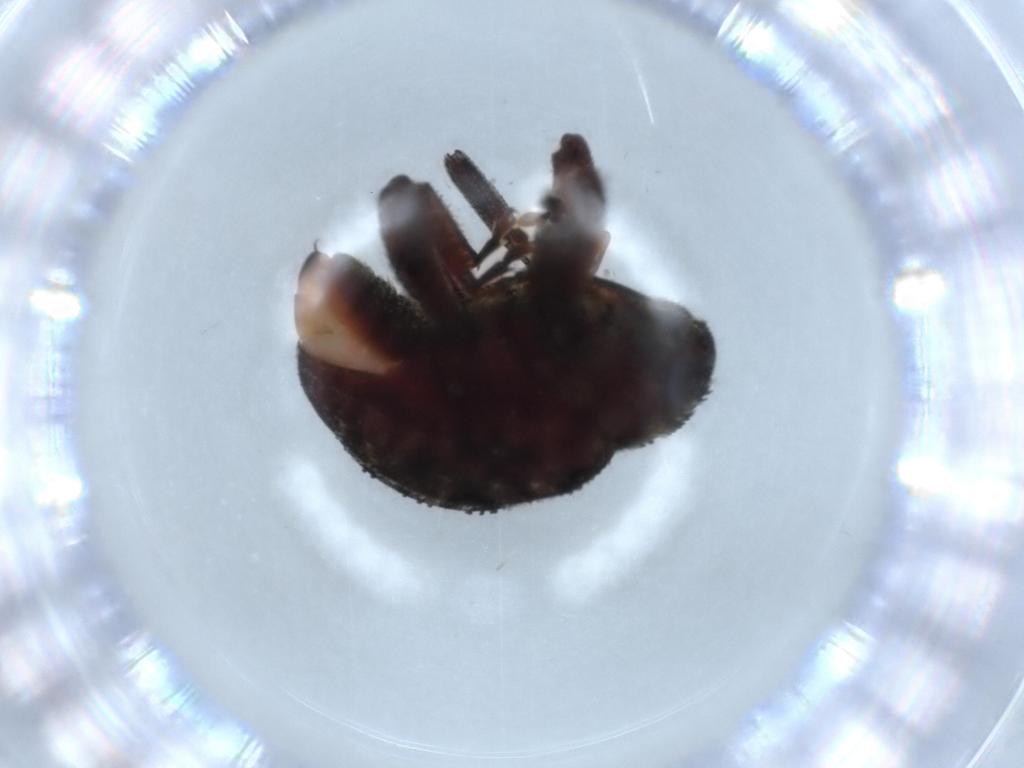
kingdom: Animalia
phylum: Arthropoda
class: Insecta
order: Coleoptera
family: Curculionidae
